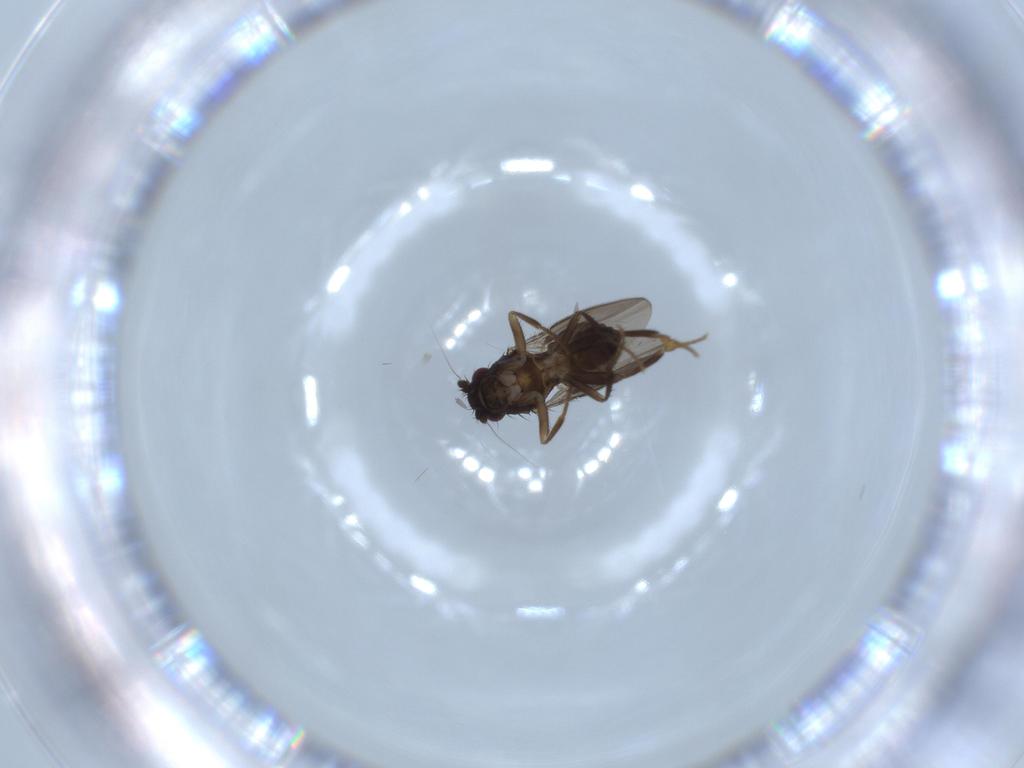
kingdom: Animalia
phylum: Arthropoda
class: Insecta
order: Diptera
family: Sphaeroceridae
